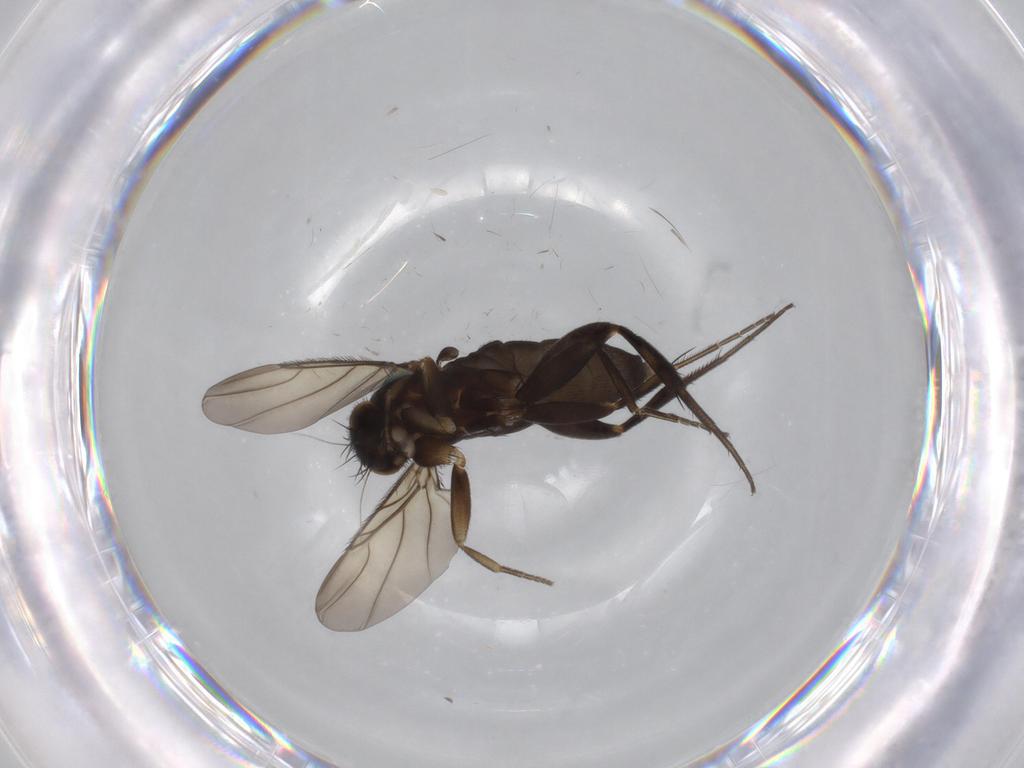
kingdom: Animalia
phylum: Arthropoda
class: Insecta
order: Diptera
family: Phoridae
